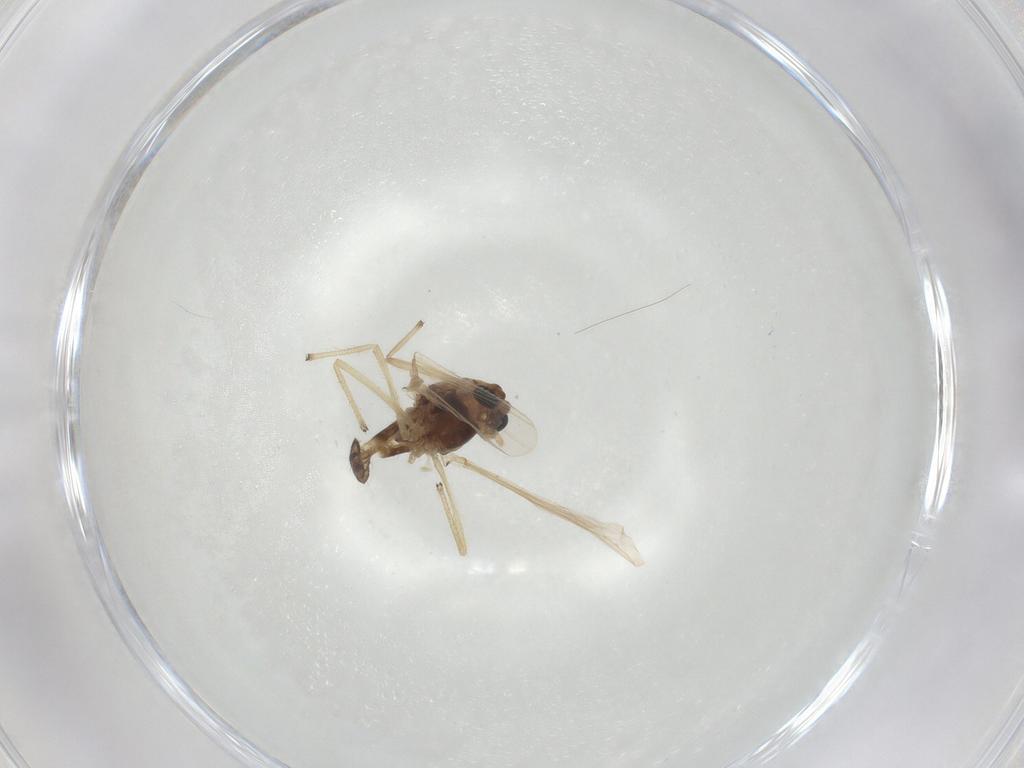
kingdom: Animalia
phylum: Arthropoda
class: Insecta
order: Diptera
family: Chironomidae
